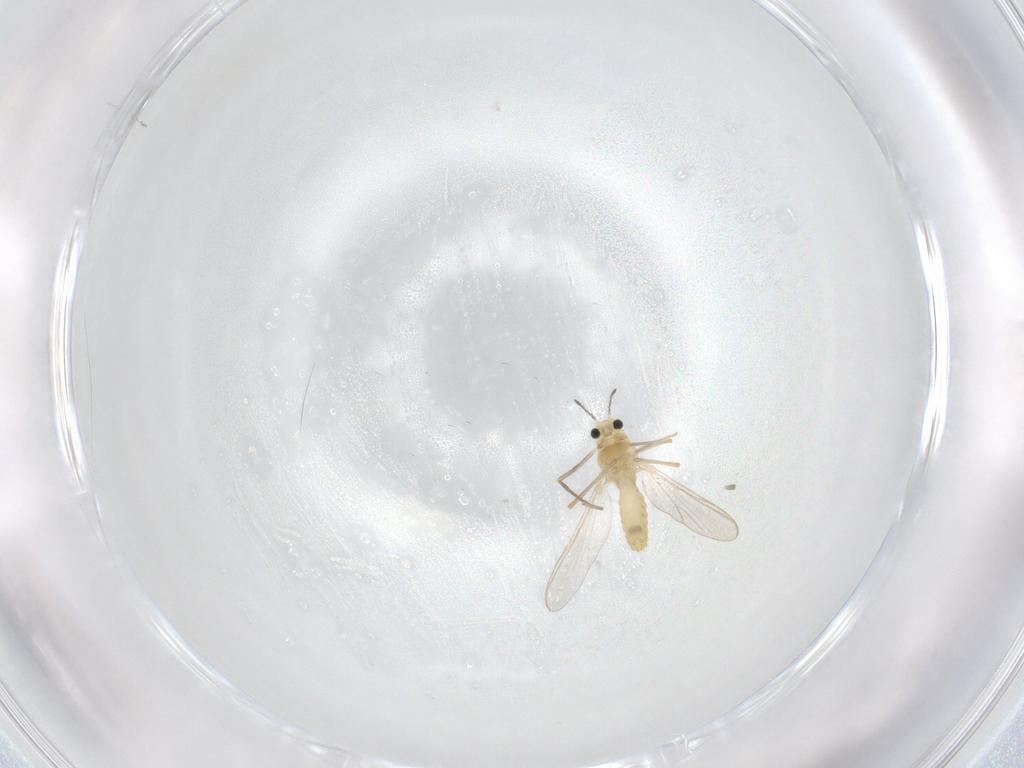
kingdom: Animalia
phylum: Arthropoda
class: Insecta
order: Diptera
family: Chironomidae
